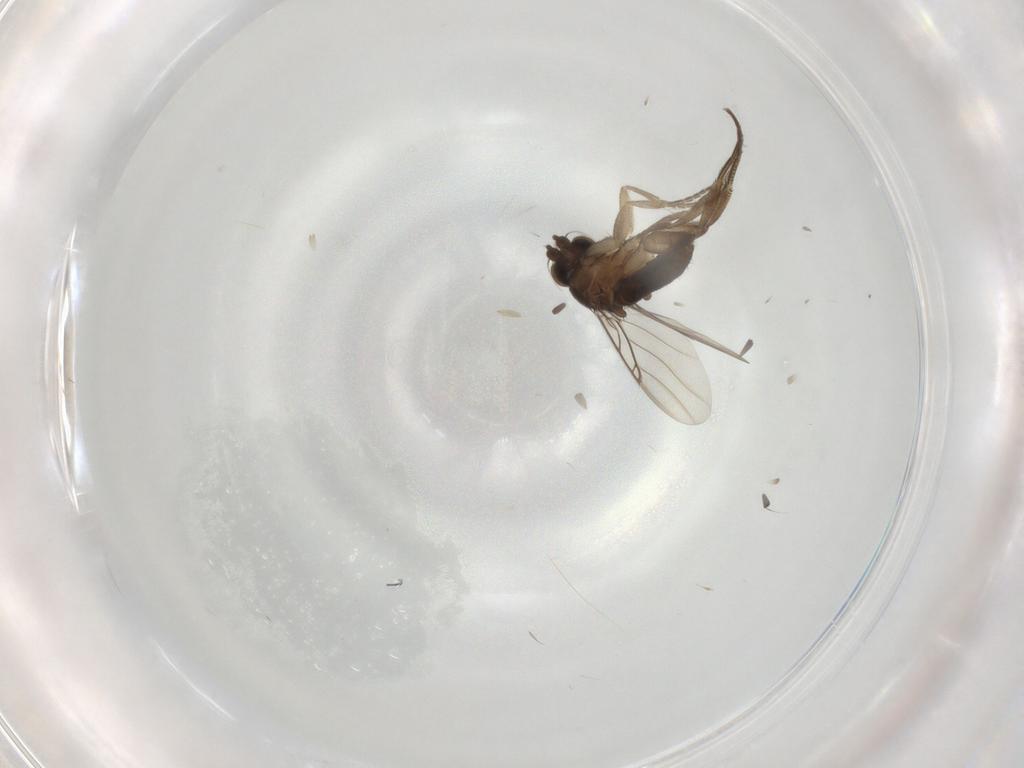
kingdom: Animalia
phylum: Arthropoda
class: Insecta
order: Diptera
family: Phoridae
